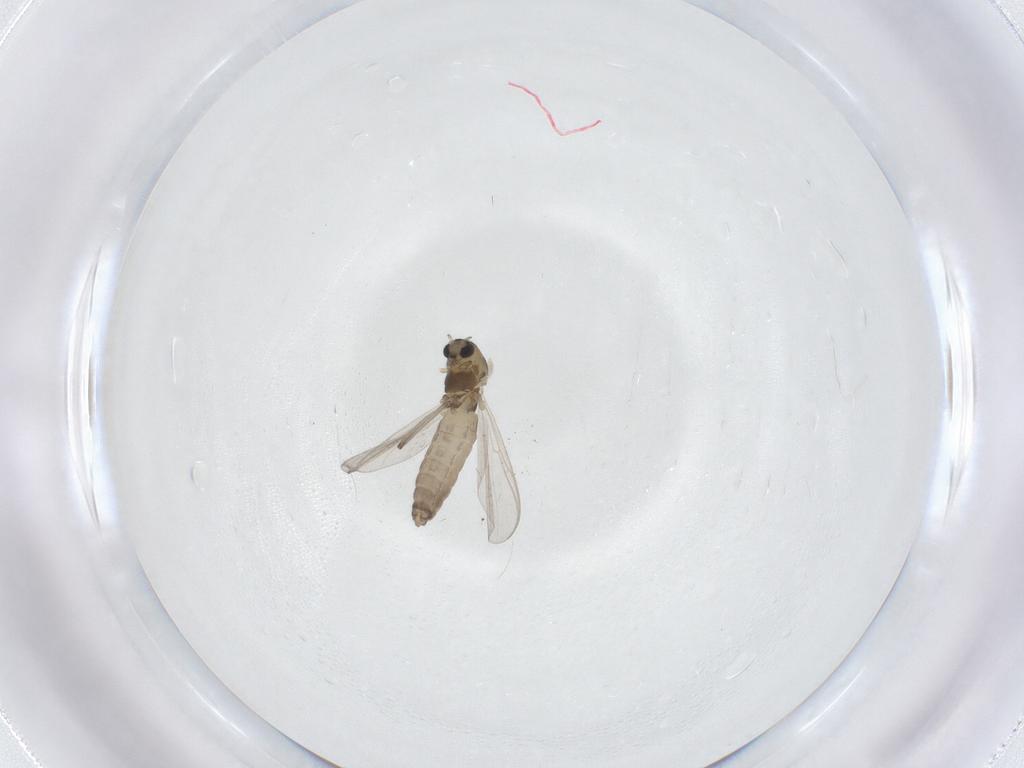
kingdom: Animalia
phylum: Arthropoda
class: Insecta
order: Diptera
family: Chironomidae
